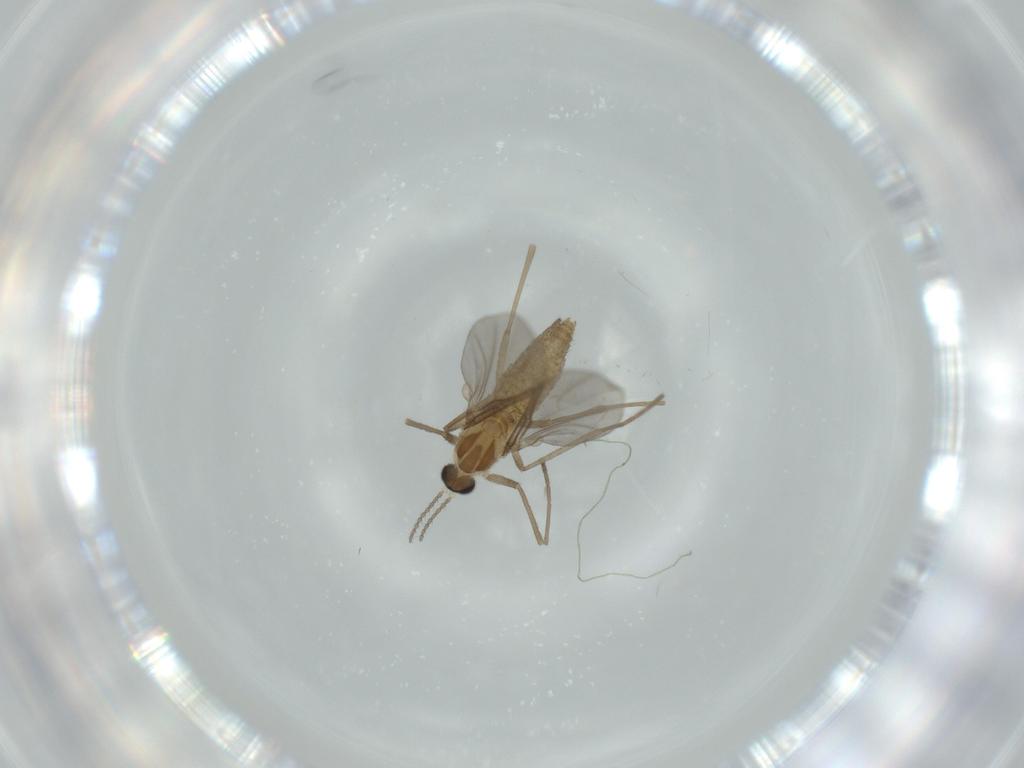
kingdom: Animalia
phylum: Arthropoda
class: Insecta
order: Diptera
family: Cecidomyiidae
